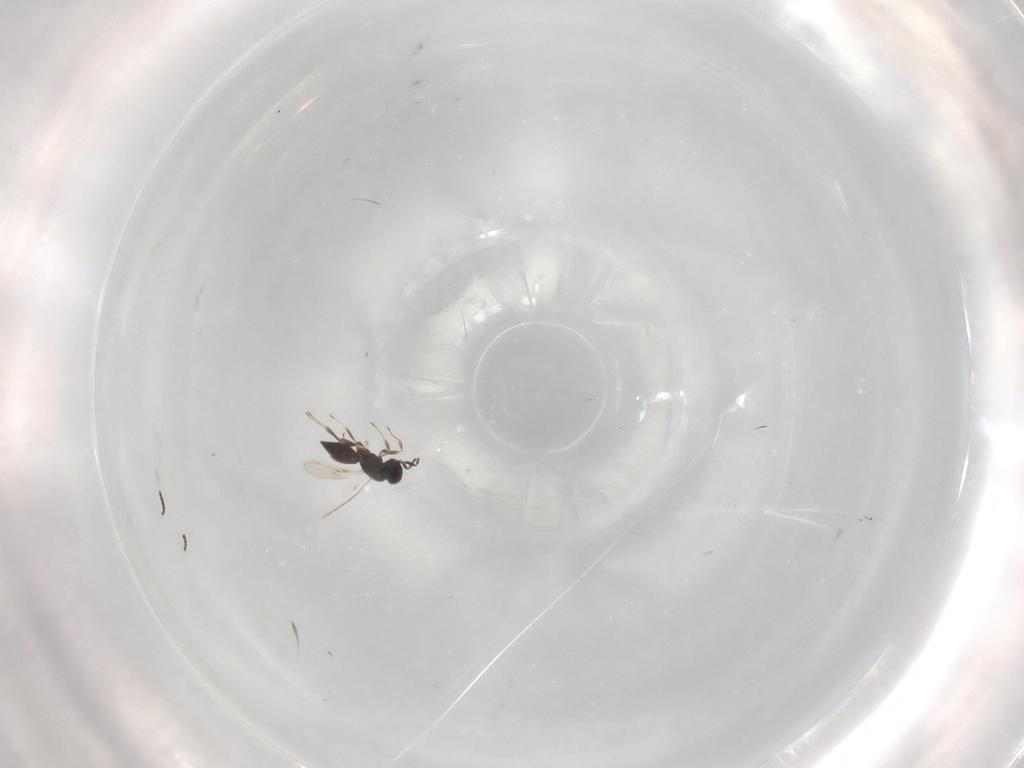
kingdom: Animalia
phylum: Arthropoda
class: Insecta
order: Hymenoptera
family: Scelionidae
